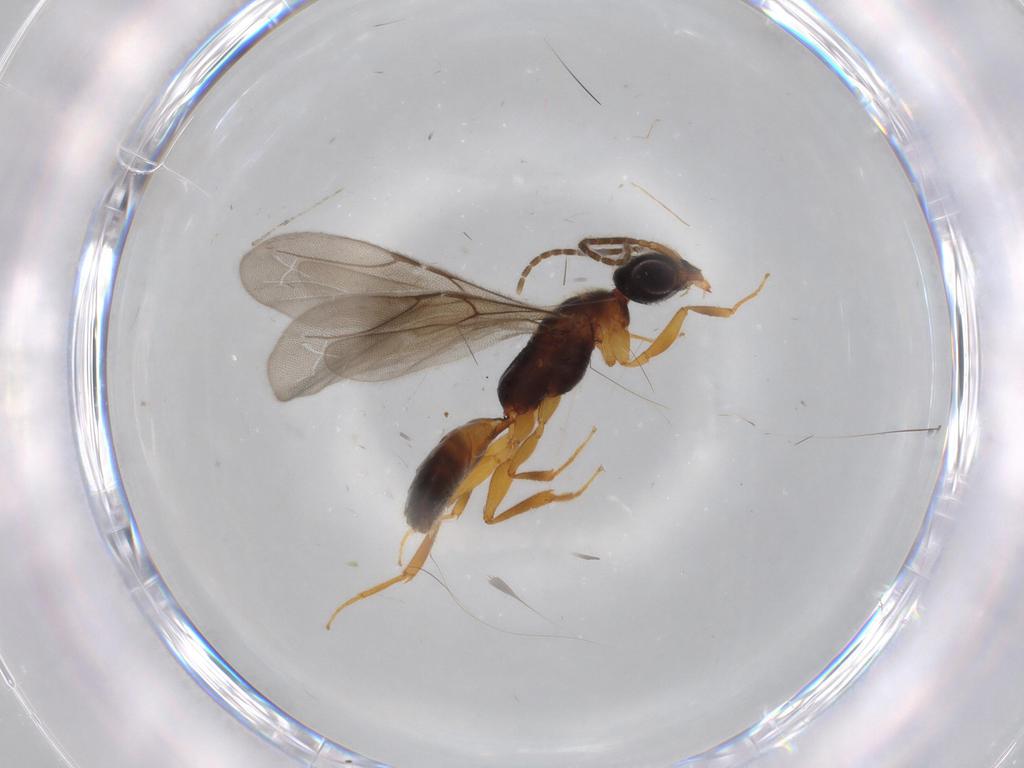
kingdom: Animalia
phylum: Arthropoda
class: Insecta
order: Hymenoptera
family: Bethylidae
